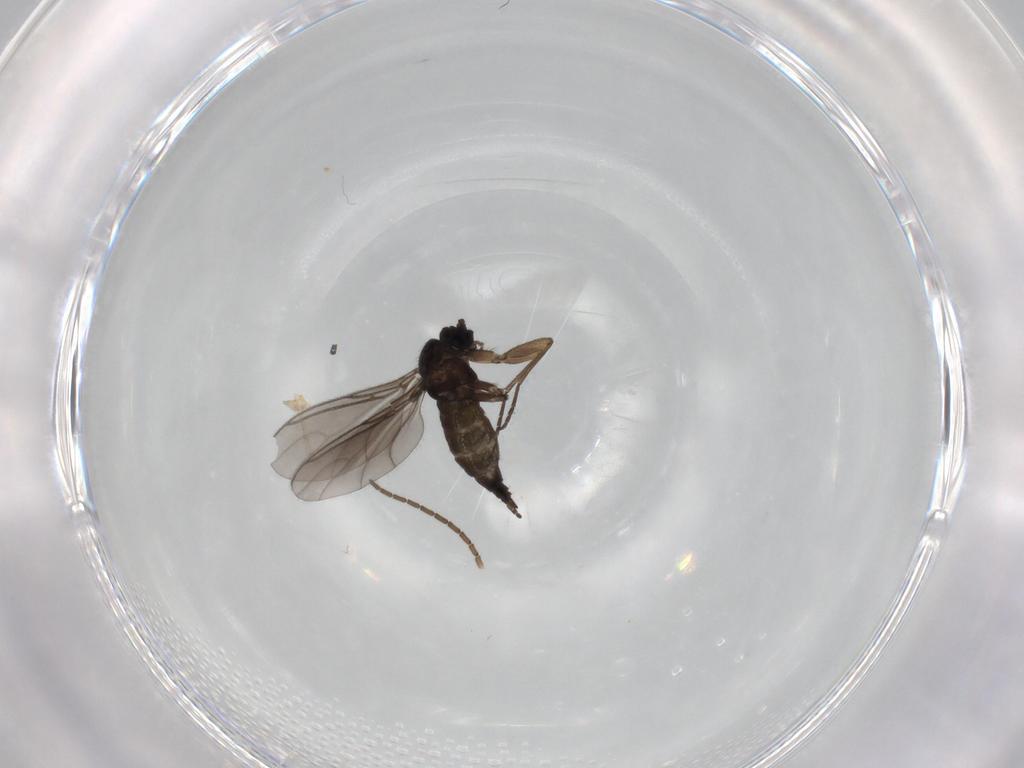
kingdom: Animalia
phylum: Arthropoda
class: Insecta
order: Diptera
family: Sciaridae
